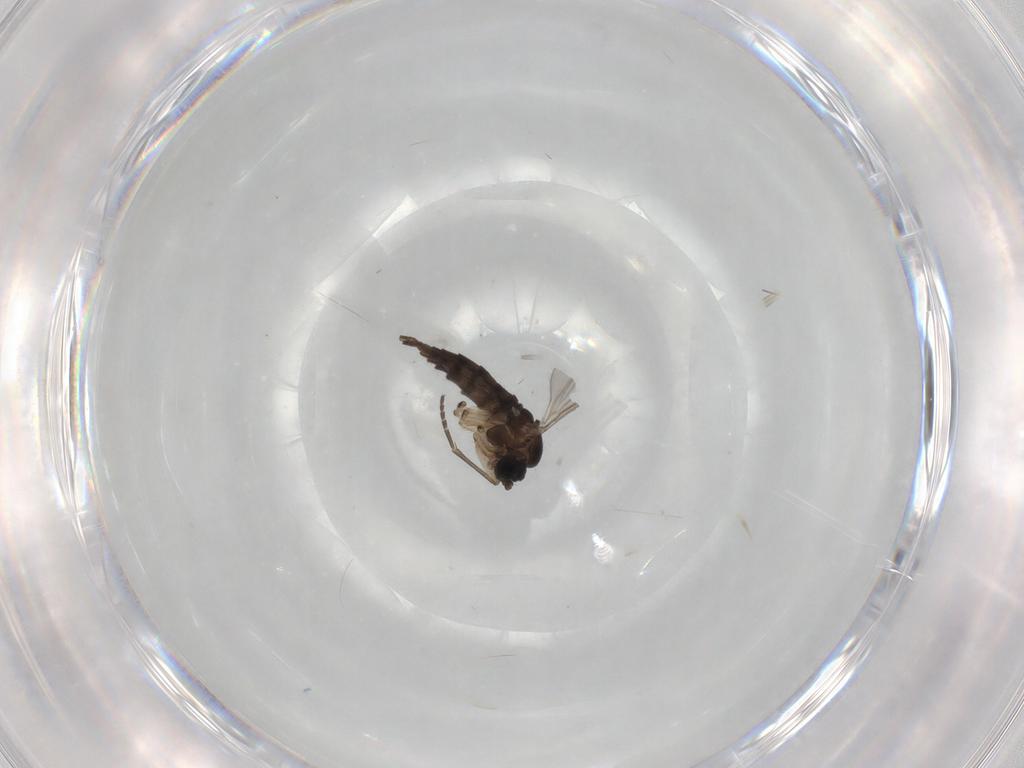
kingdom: Animalia
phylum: Arthropoda
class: Insecta
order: Diptera
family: Sciaridae
